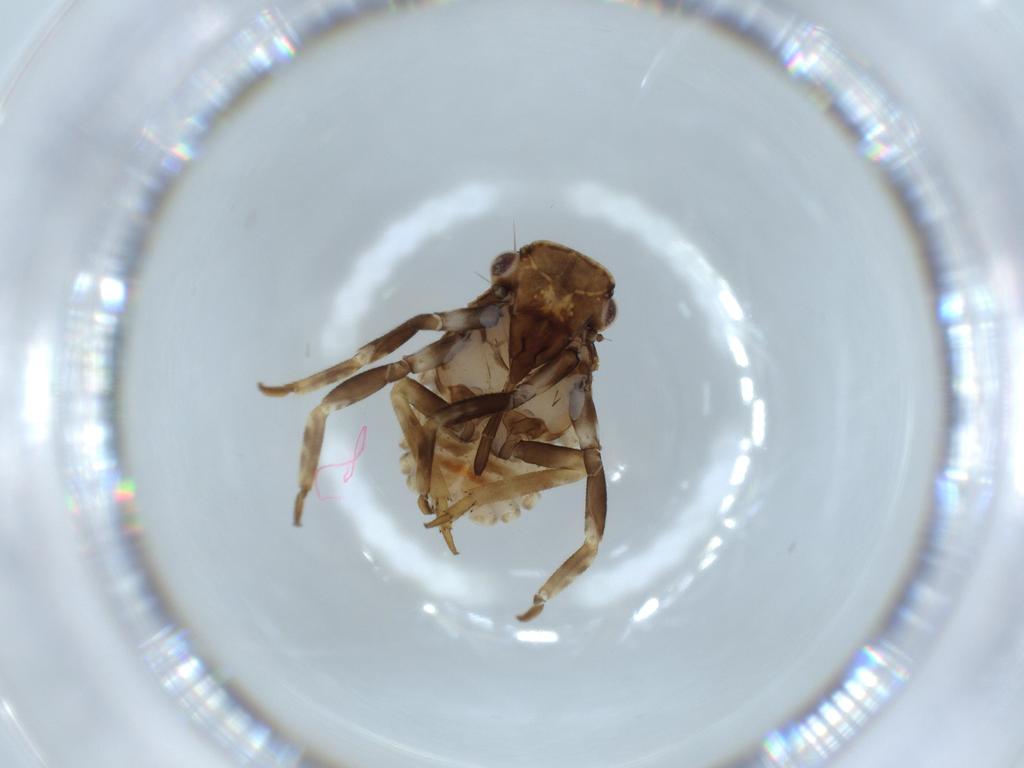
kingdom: Animalia
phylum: Arthropoda
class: Insecta
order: Hemiptera
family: Fulgoroidea_incertae_sedis
